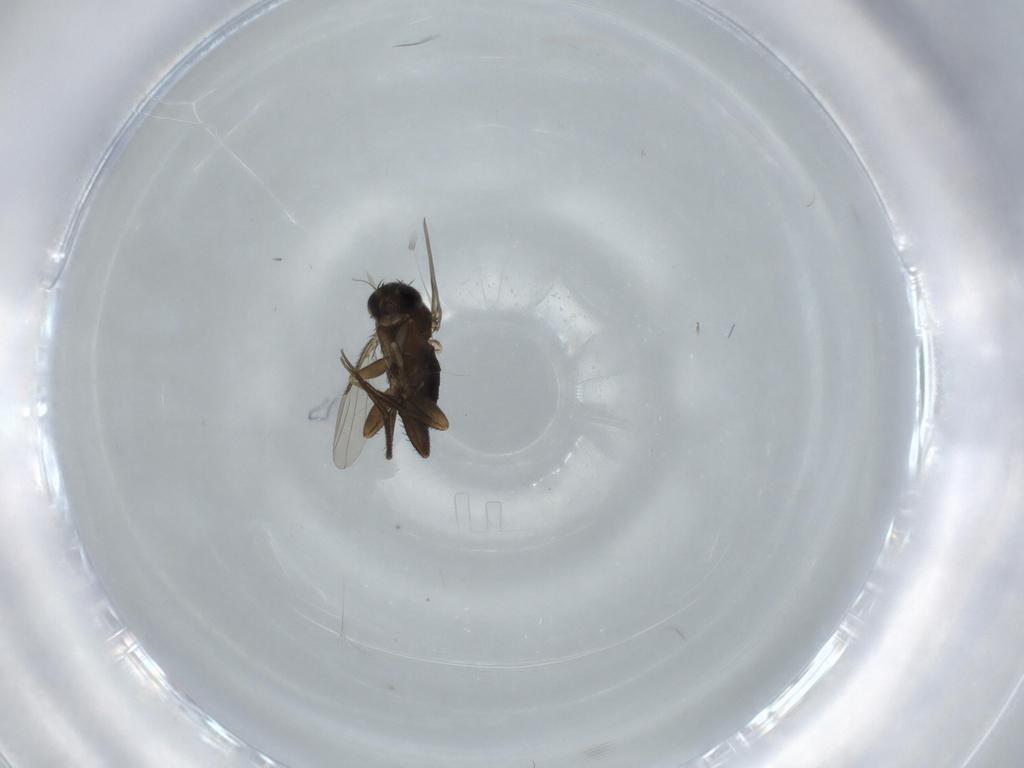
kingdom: Animalia
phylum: Arthropoda
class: Insecta
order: Diptera
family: Phoridae
